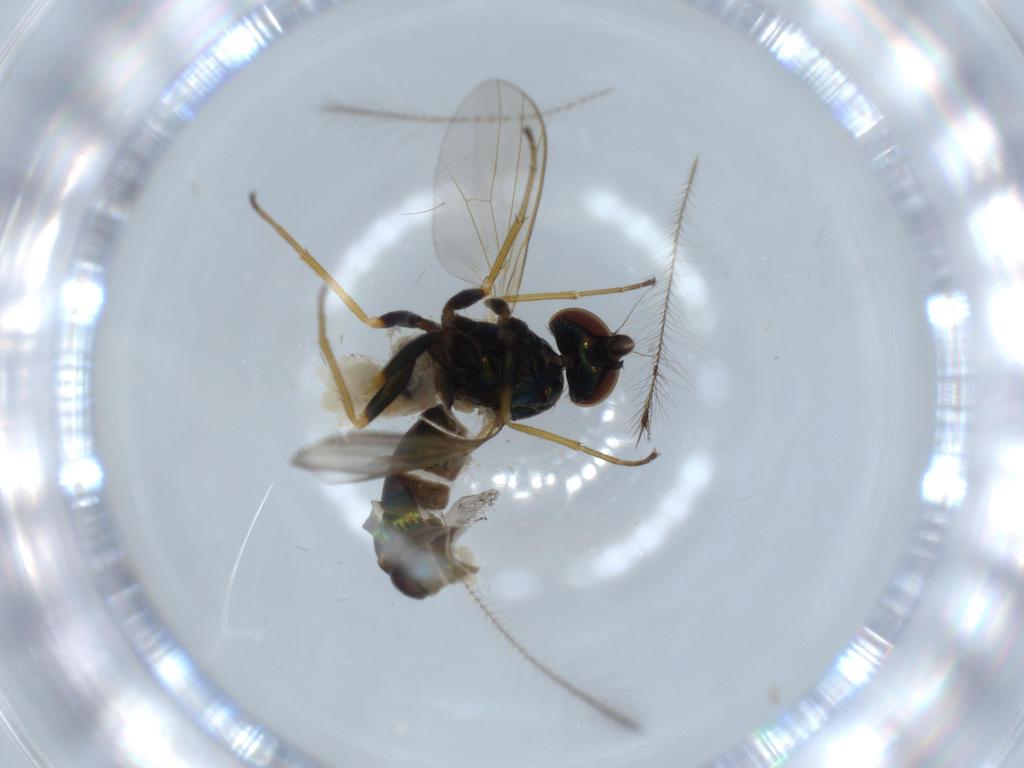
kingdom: Animalia
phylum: Arthropoda
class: Insecta
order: Diptera
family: Dolichopodidae
